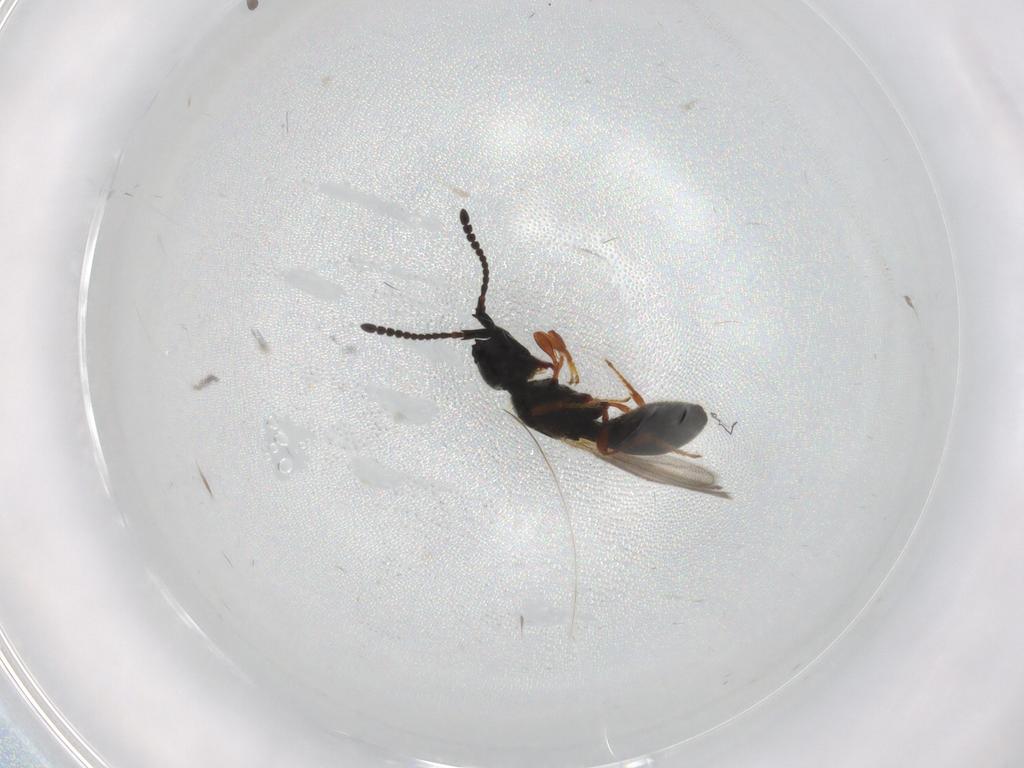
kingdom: Animalia
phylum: Arthropoda
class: Insecta
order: Hymenoptera
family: Diapriidae
